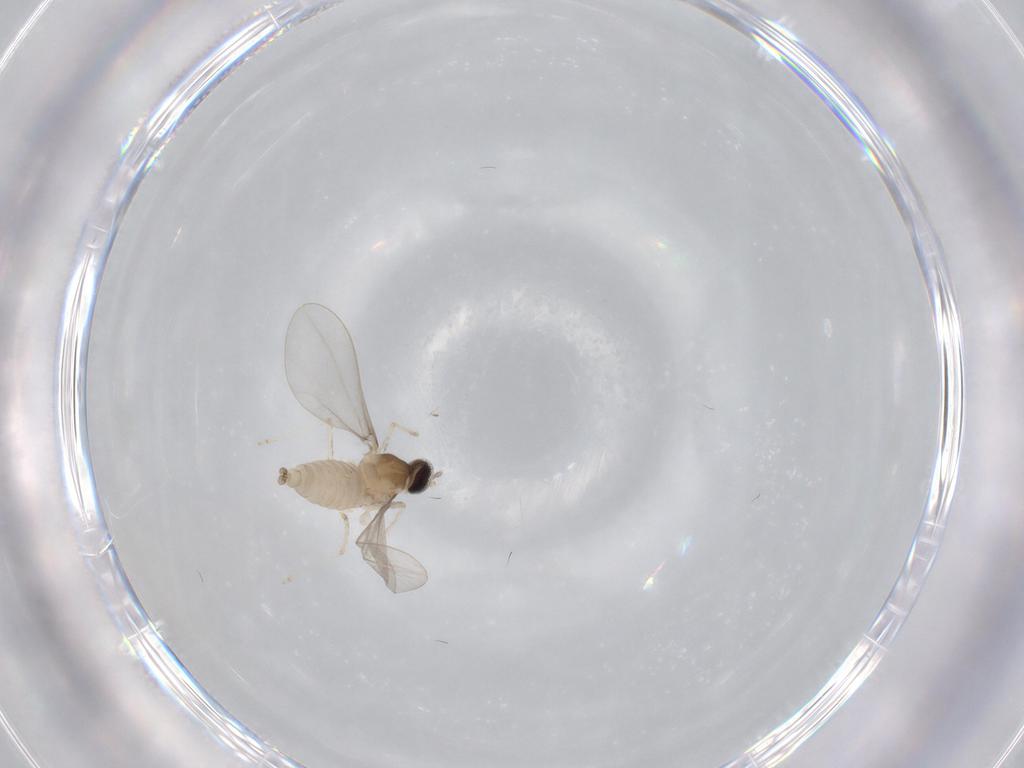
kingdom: Animalia
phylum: Arthropoda
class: Insecta
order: Diptera
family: Cecidomyiidae
